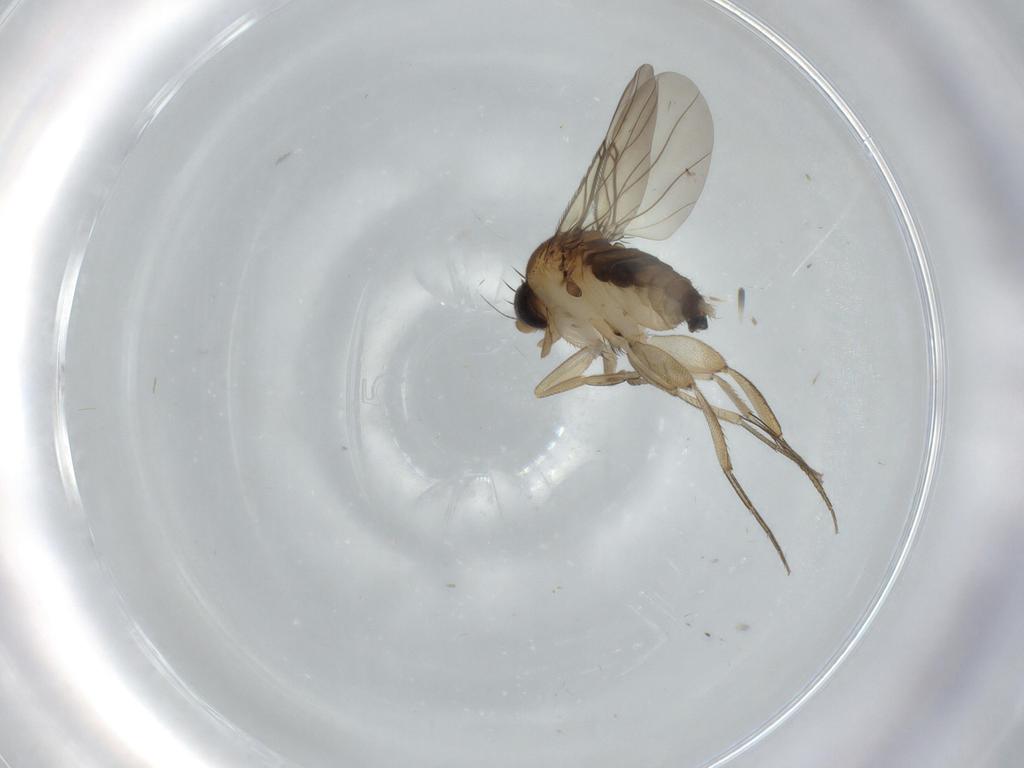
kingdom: Animalia
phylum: Arthropoda
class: Insecta
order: Diptera
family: Phoridae
